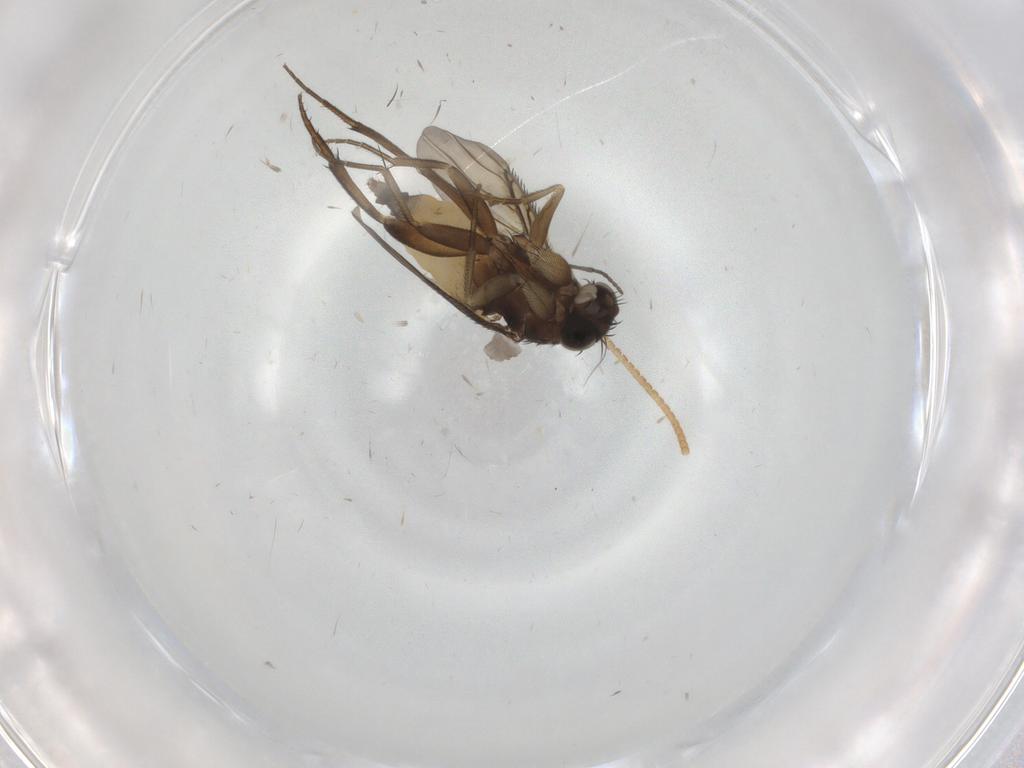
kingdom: Animalia
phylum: Arthropoda
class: Insecta
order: Diptera
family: Phoridae
